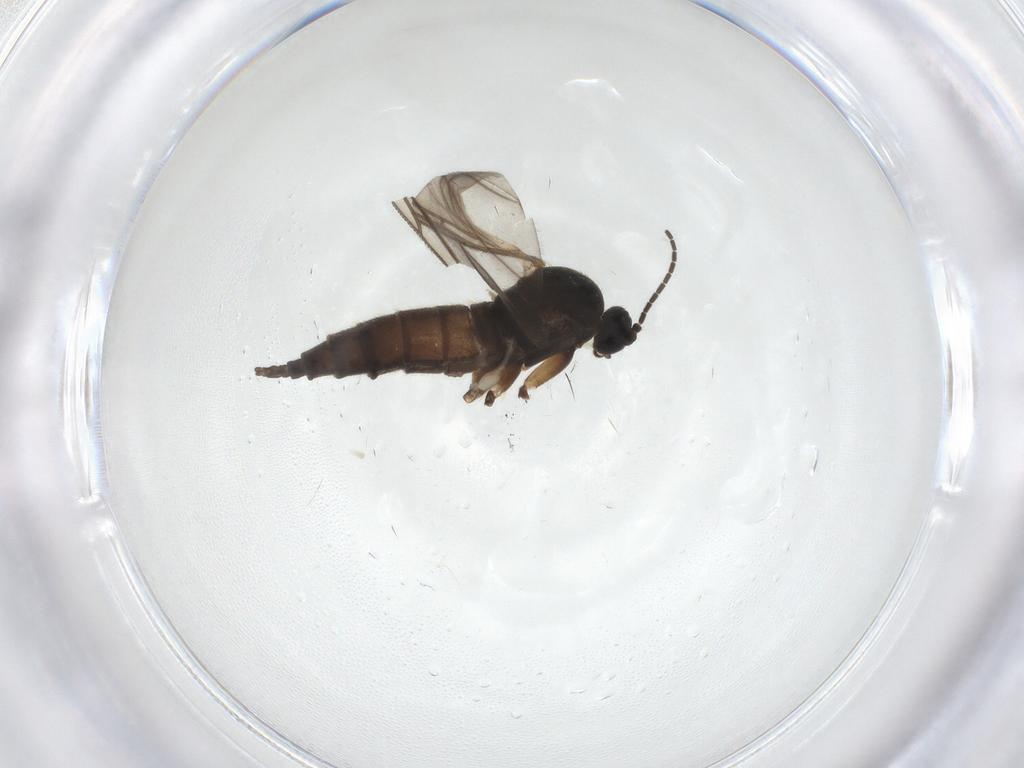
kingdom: Animalia
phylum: Arthropoda
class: Insecta
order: Diptera
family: Sciaridae
